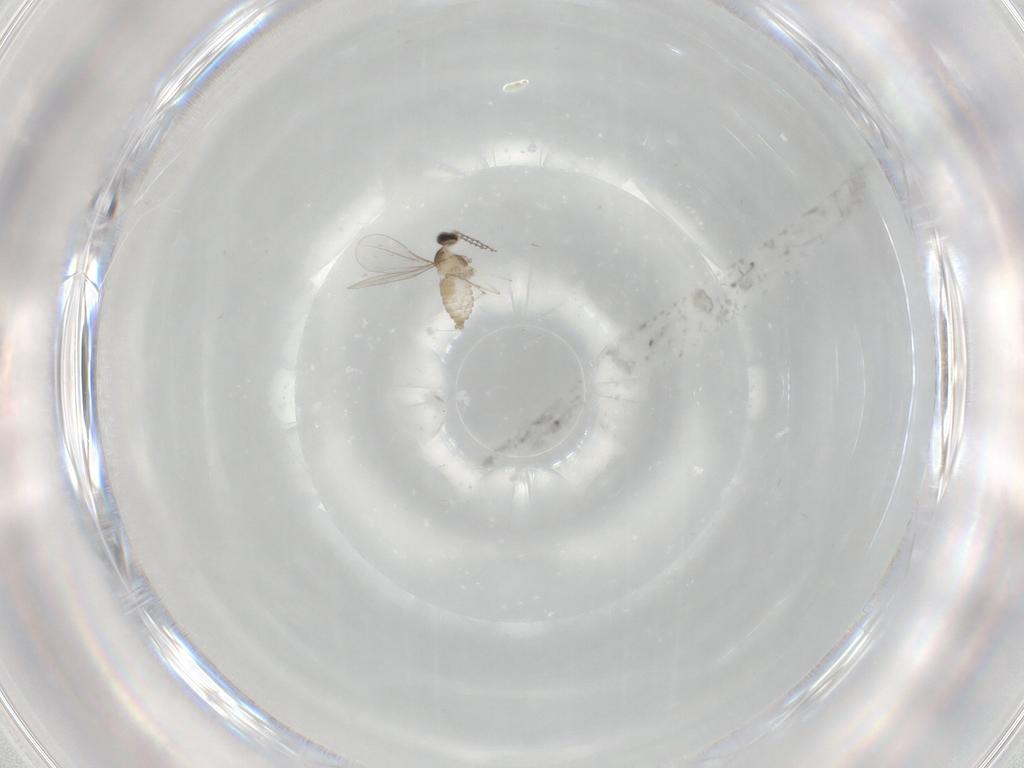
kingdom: Animalia
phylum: Arthropoda
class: Insecta
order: Diptera
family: Cecidomyiidae
